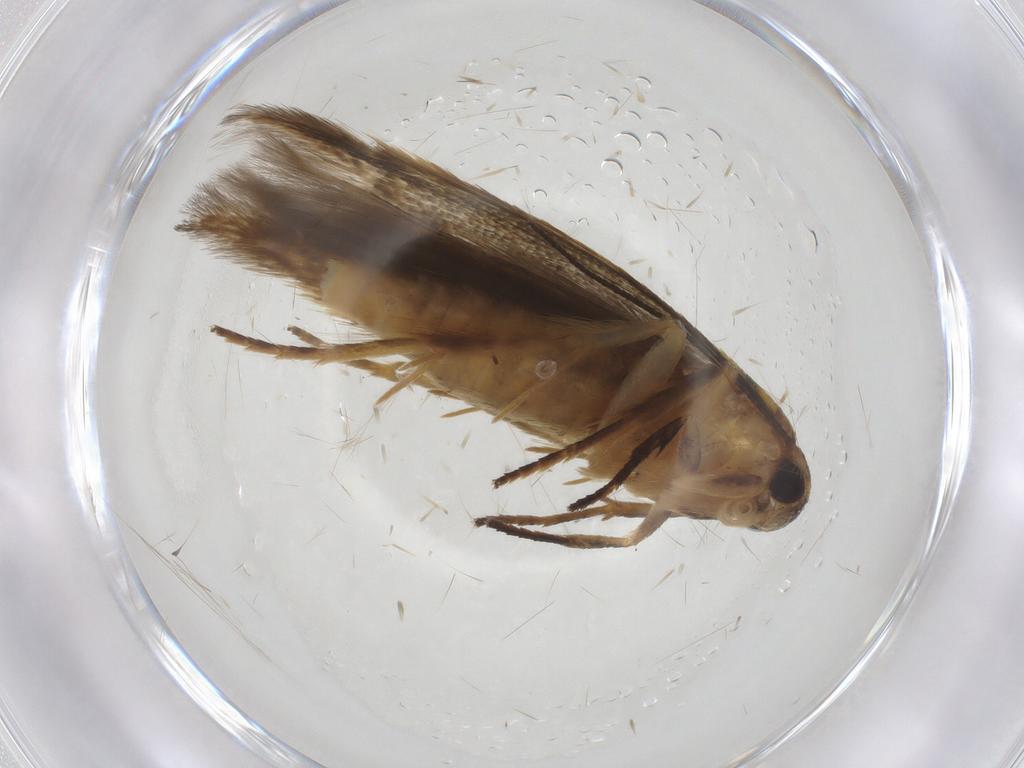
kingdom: Animalia
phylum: Arthropoda
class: Insecta
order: Lepidoptera
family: Stathmopodidae
